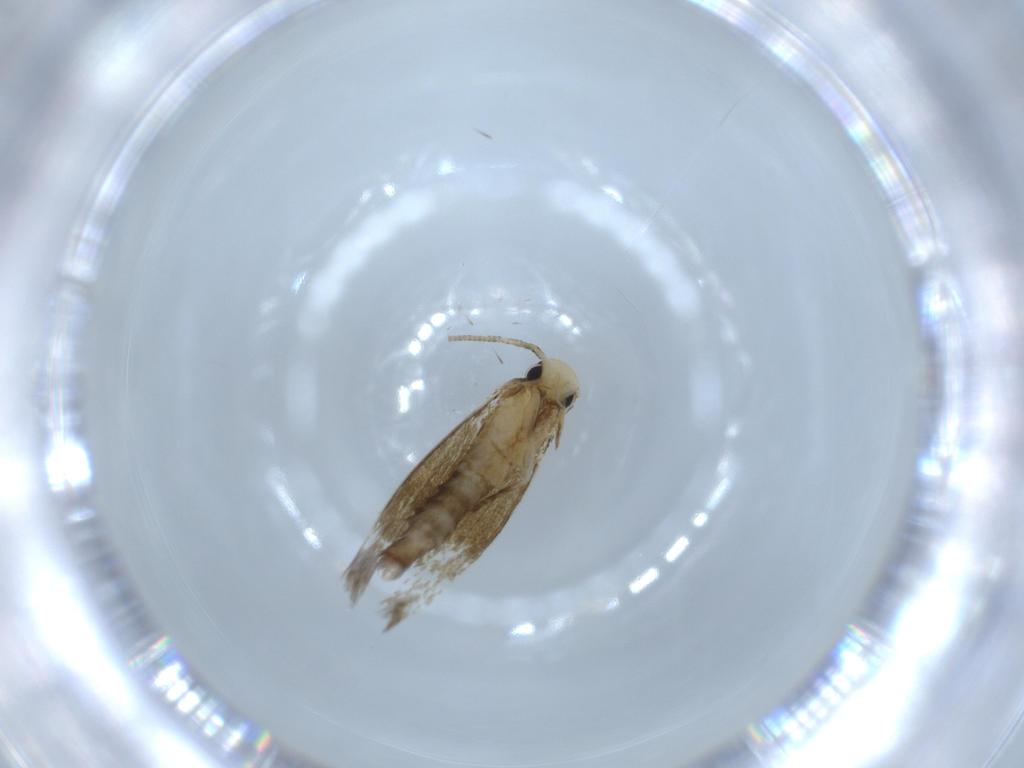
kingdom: Animalia
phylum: Arthropoda
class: Insecta
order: Lepidoptera
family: Tineidae
